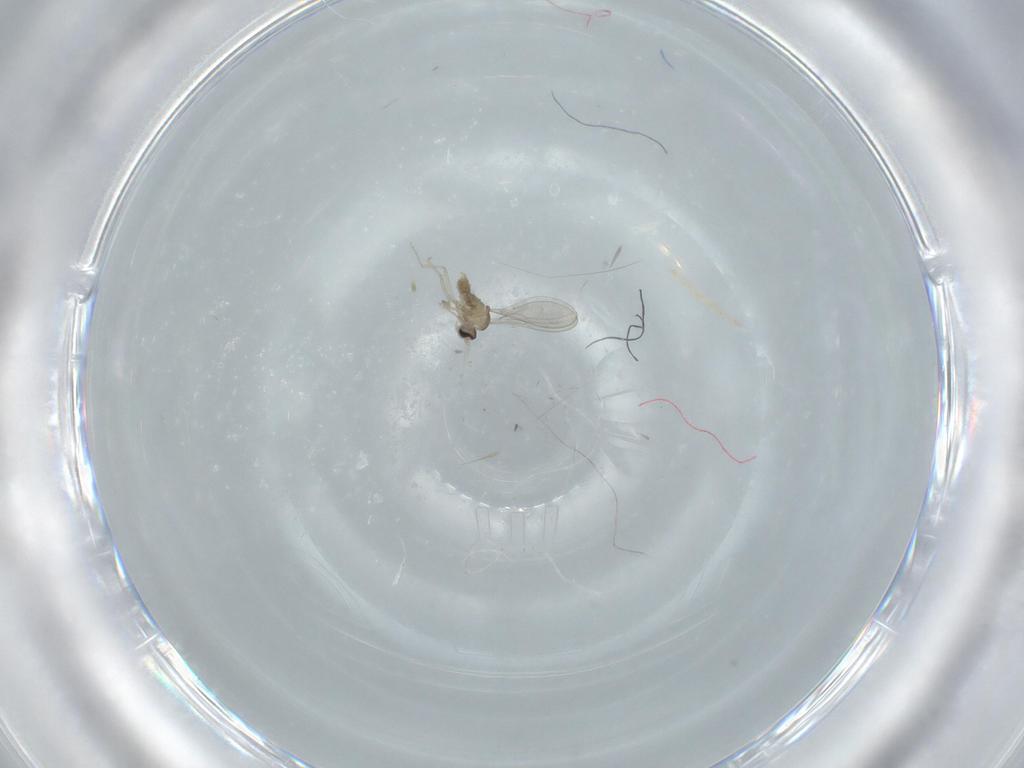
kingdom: Animalia
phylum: Arthropoda
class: Insecta
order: Diptera
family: Cecidomyiidae
